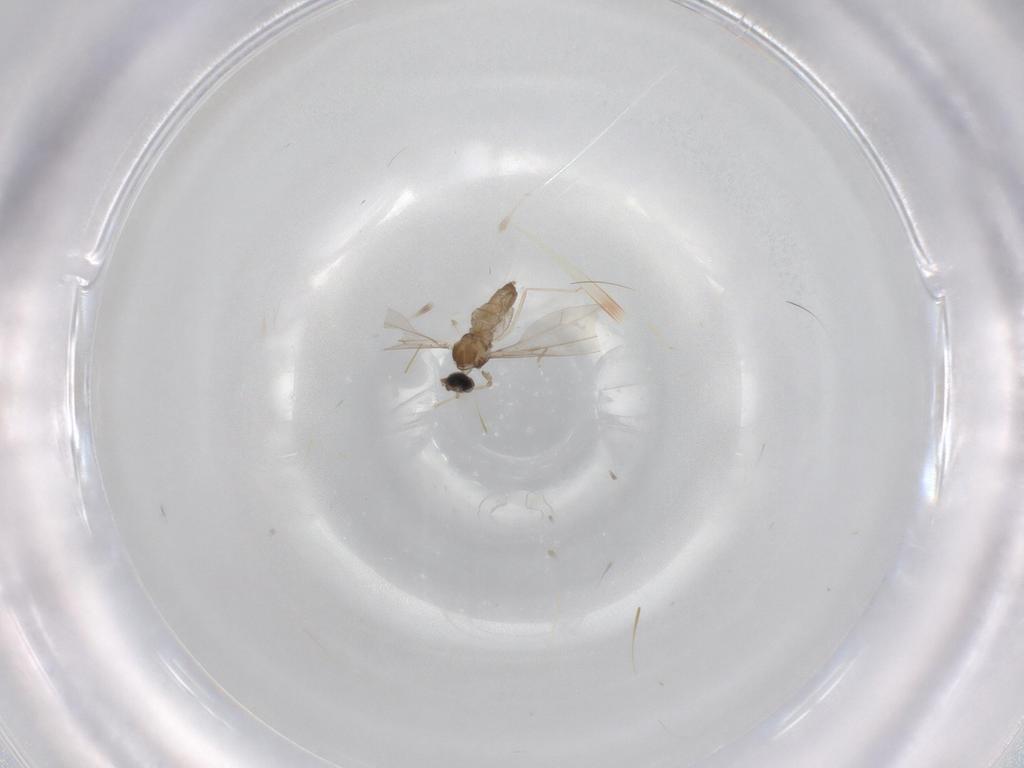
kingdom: Animalia
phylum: Arthropoda
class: Insecta
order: Diptera
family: Cecidomyiidae
